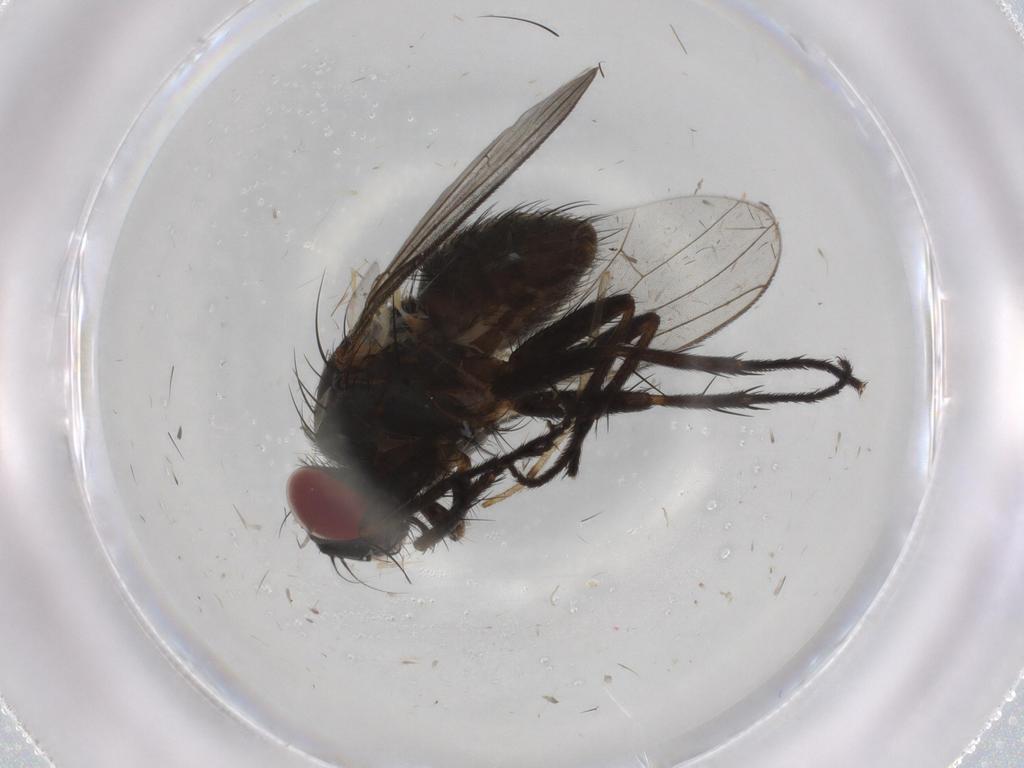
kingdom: Animalia
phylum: Arthropoda
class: Insecta
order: Diptera
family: Muscidae
